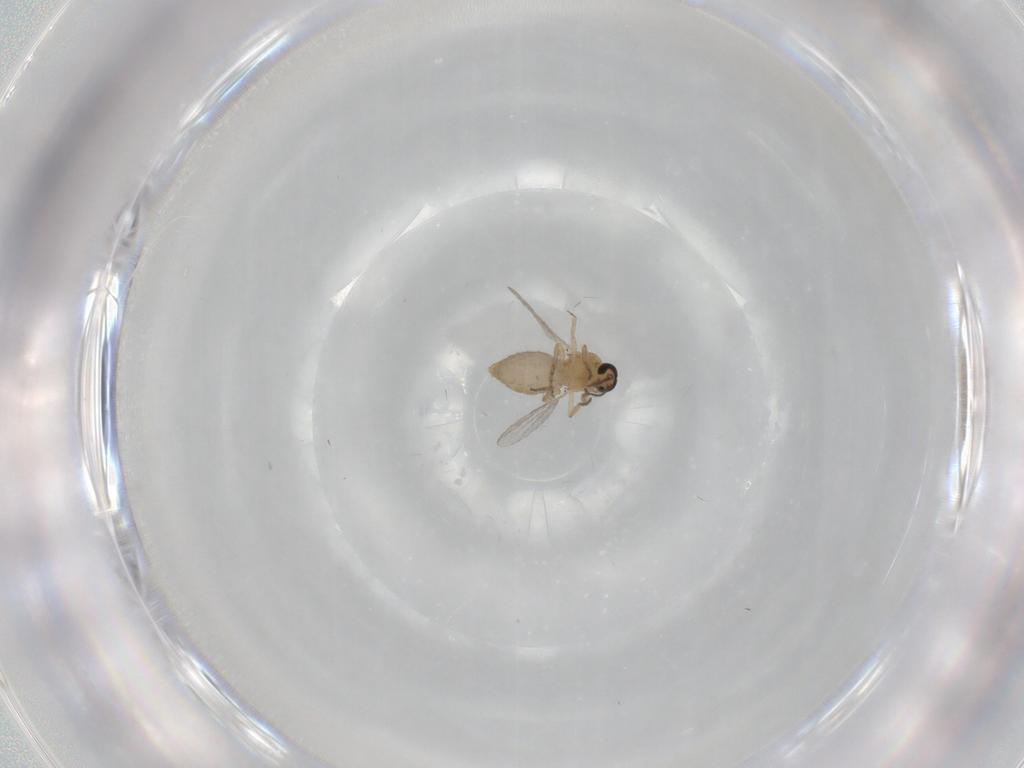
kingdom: Animalia
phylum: Arthropoda
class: Insecta
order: Diptera
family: Ceratopogonidae
